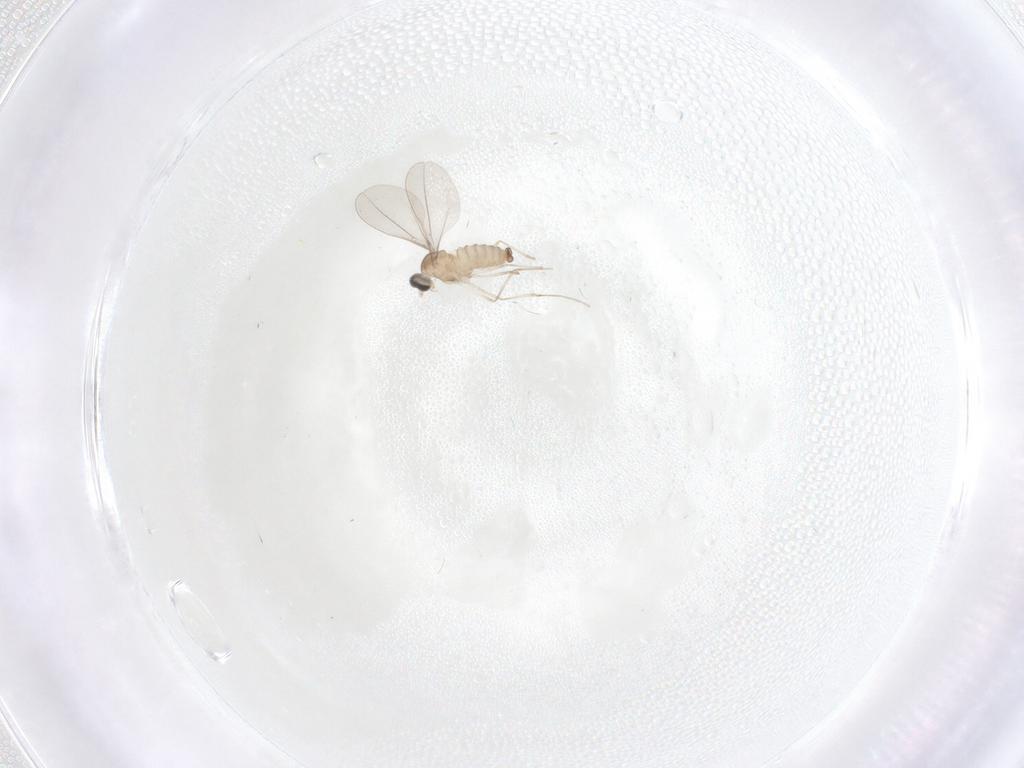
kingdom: Animalia
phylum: Arthropoda
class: Insecta
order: Diptera
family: Cecidomyiidae
